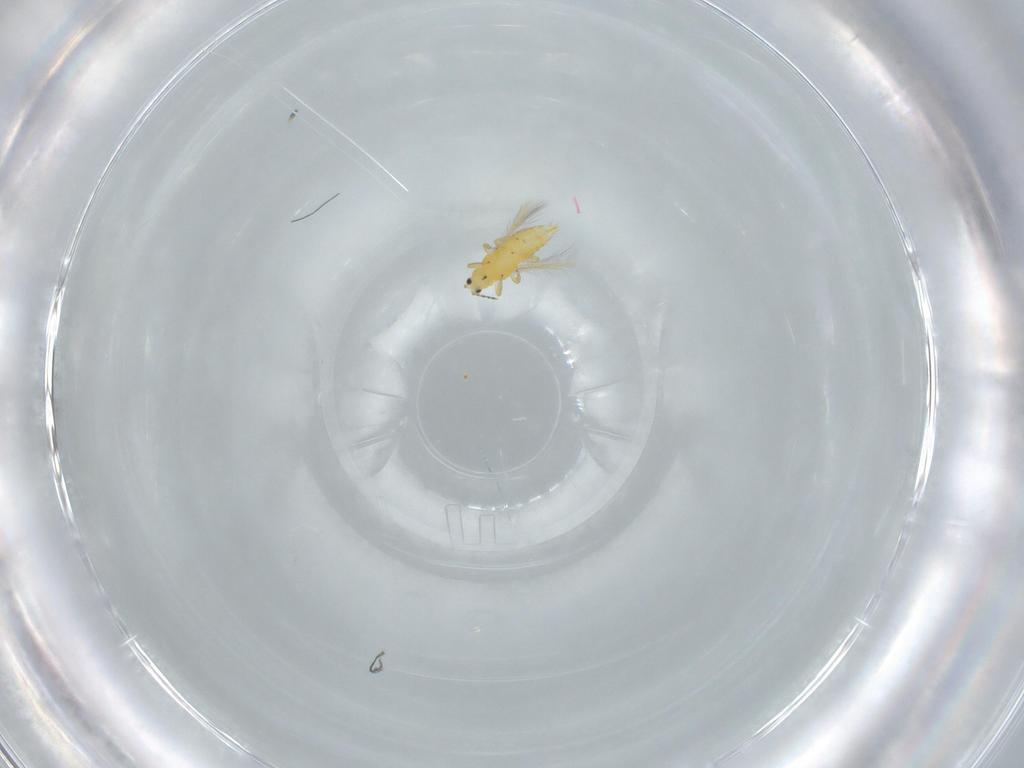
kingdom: Animalia
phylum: Arthropoda
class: Insecta
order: Thysanoptera
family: Thripidae
